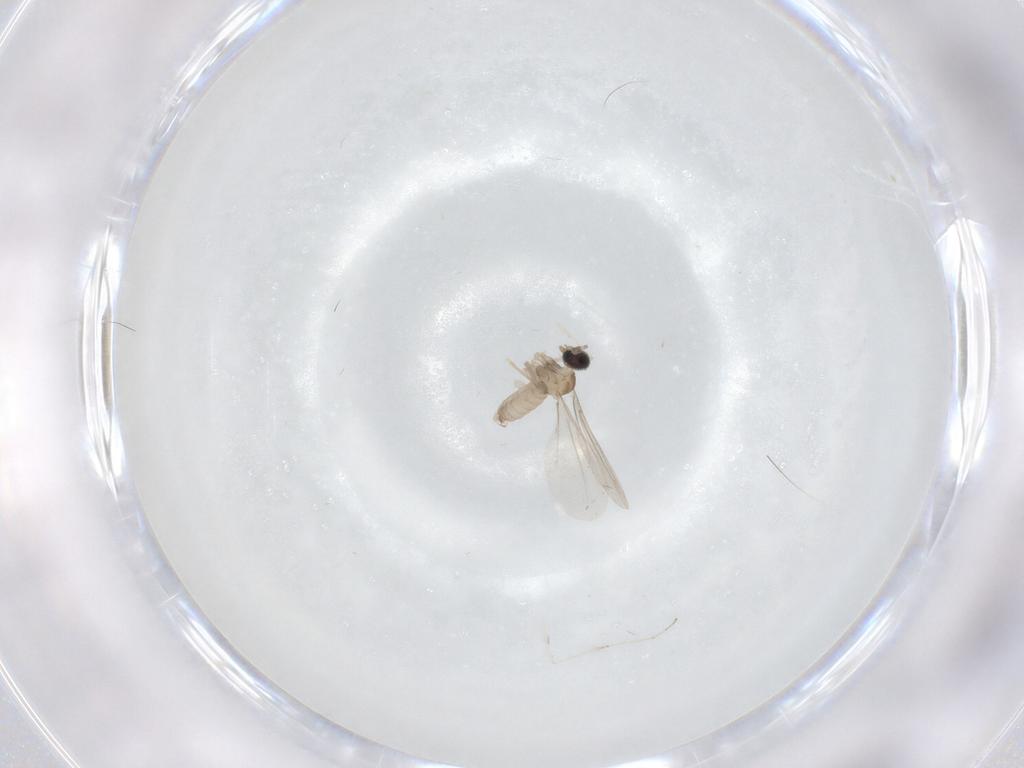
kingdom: Animalia
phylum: Arthropoda
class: Insecta
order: Diptera
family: Cecidomyiidae
